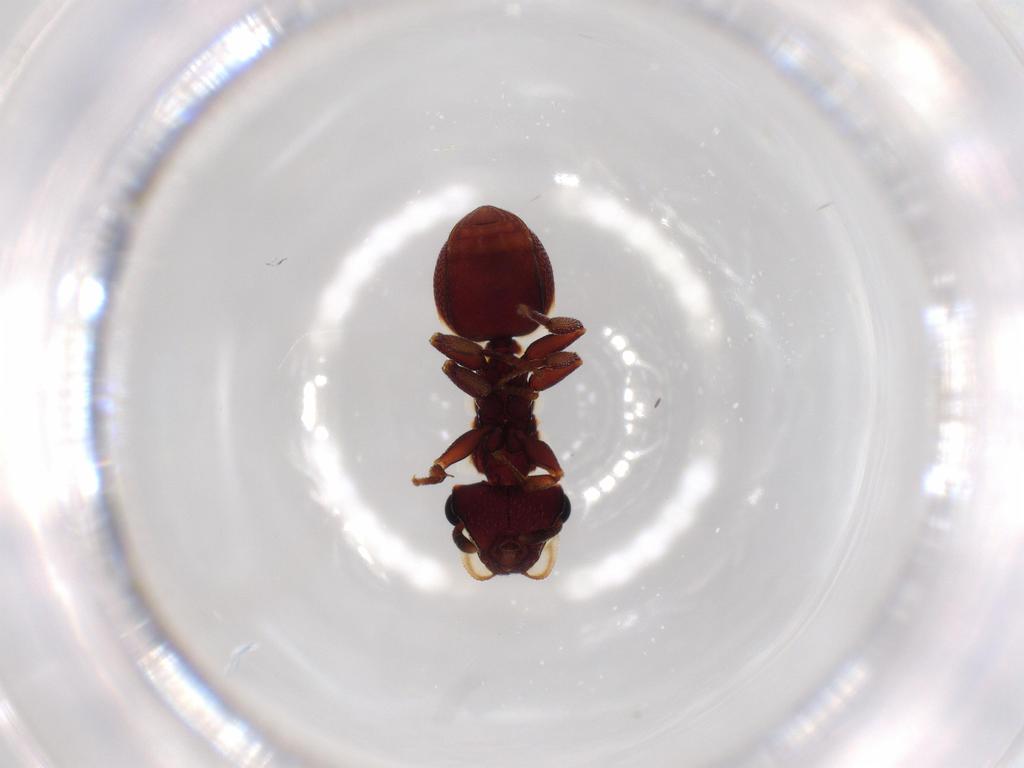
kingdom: Animalia
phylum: Arthropoda
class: Insecta
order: Hymenoptera
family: Formicidae
